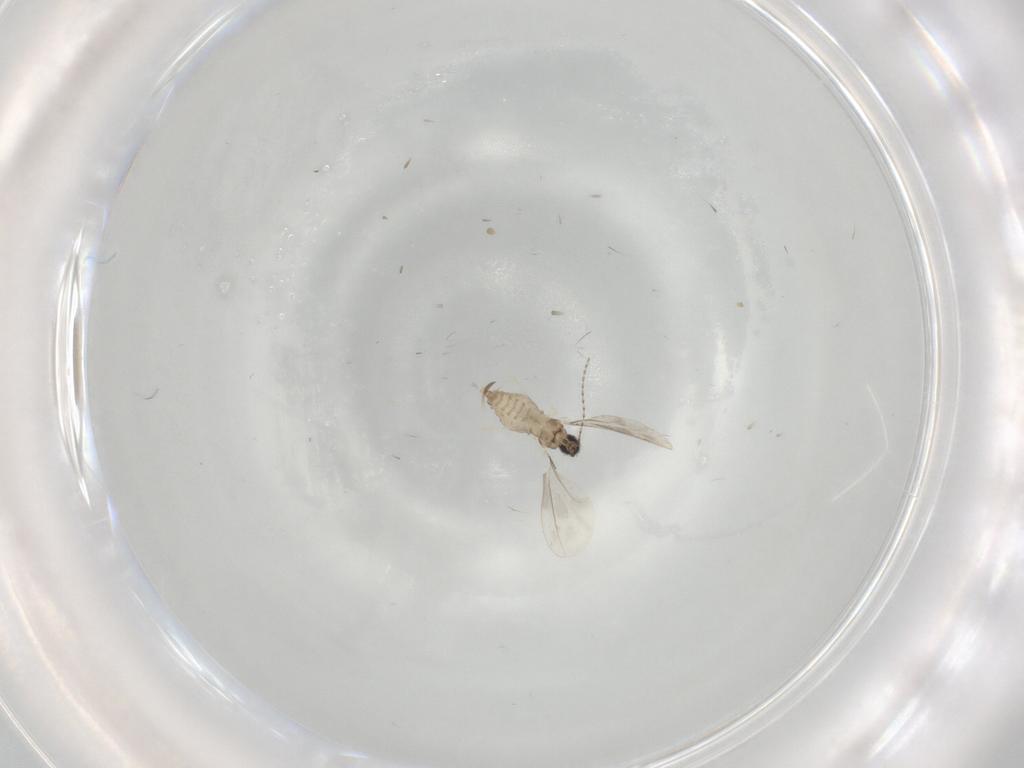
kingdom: Animalia
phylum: Arthropoda
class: Insecta
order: Diptera
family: Cecidomyiidae
